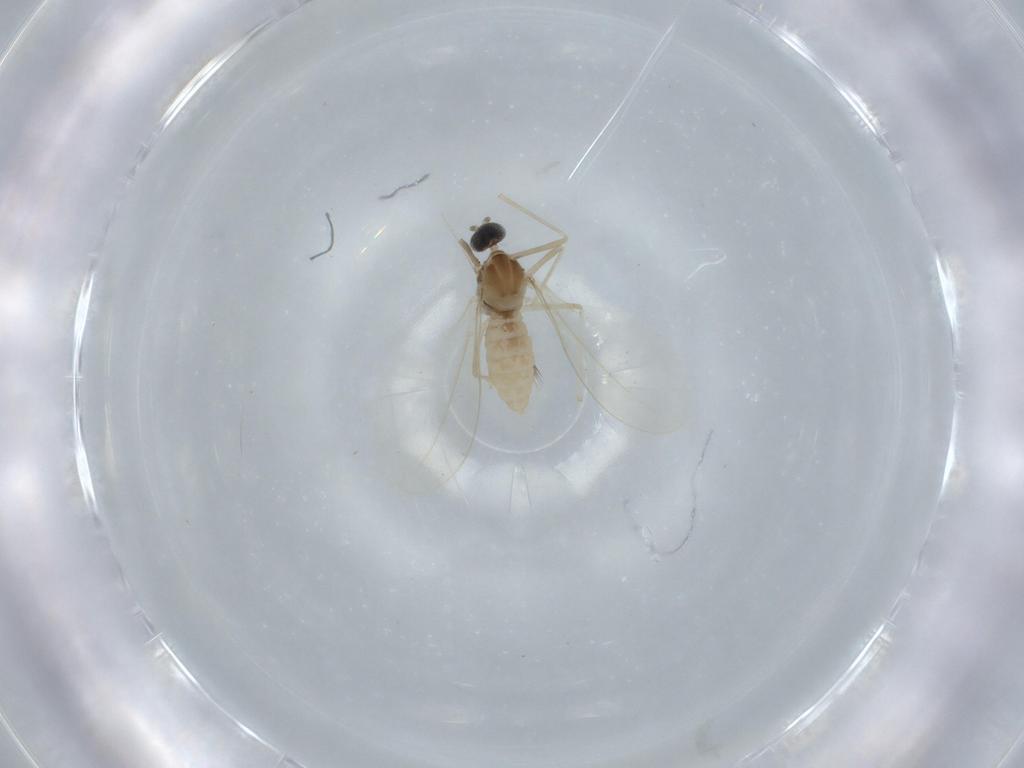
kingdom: Animalia
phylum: Arthropoda
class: Insecta
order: Diptera
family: Cecidomyiidae
